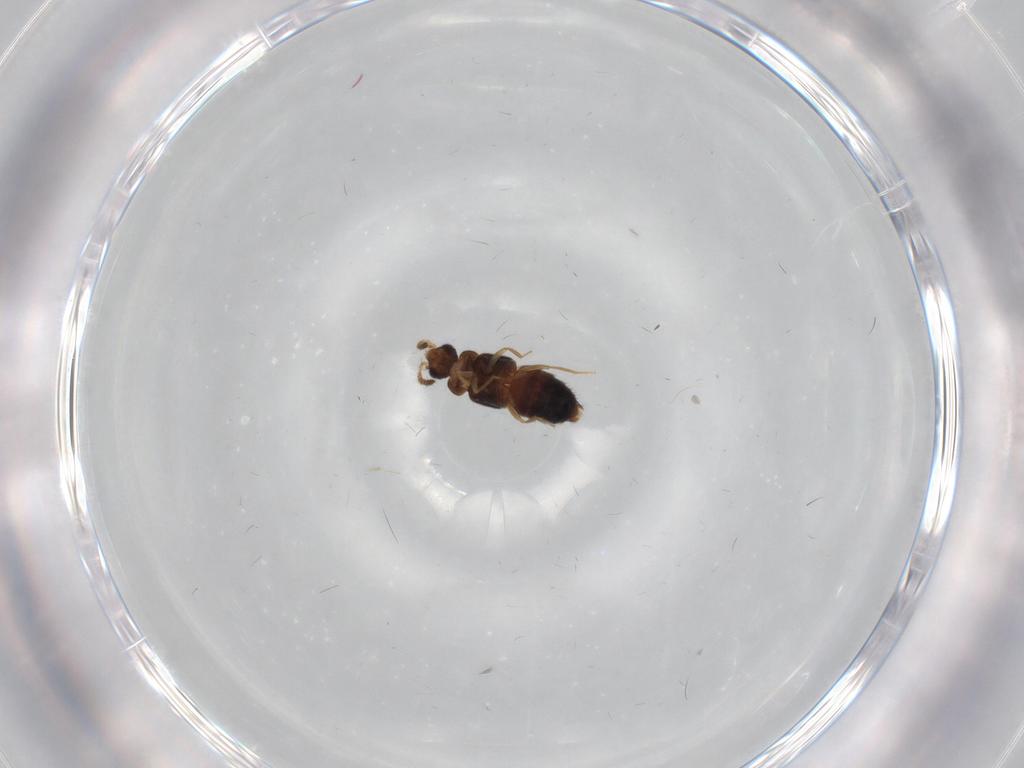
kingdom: Animalia
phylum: Arthropoda
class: Insecta
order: Coleoptera
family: Staphylinidae
